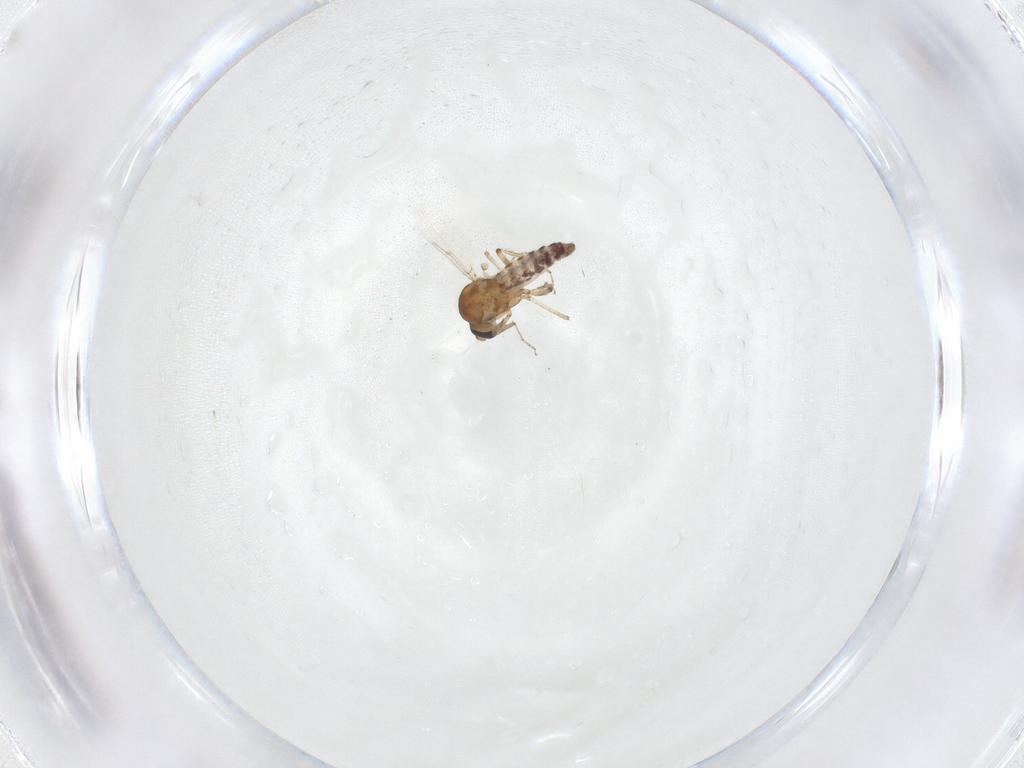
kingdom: Animalia
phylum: Arthropoda
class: Insecta
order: Diptera
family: Ceratopogonidae
